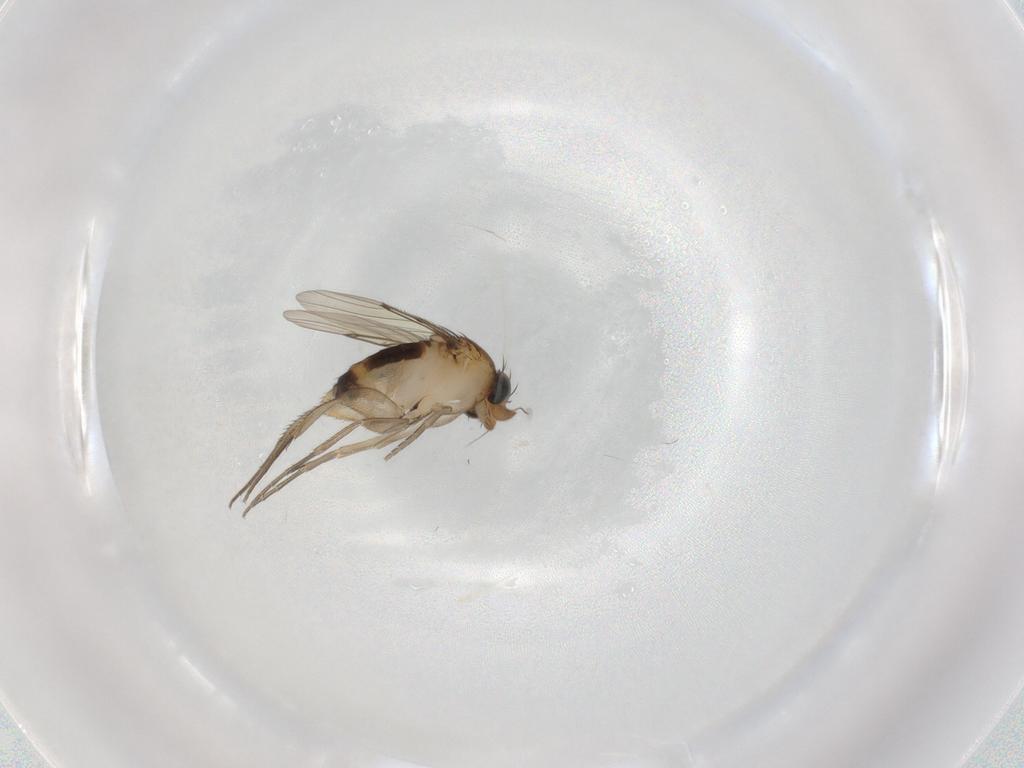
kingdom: Animalia
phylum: Arthropoda
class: Insecta
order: Diptera
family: Phoridae
